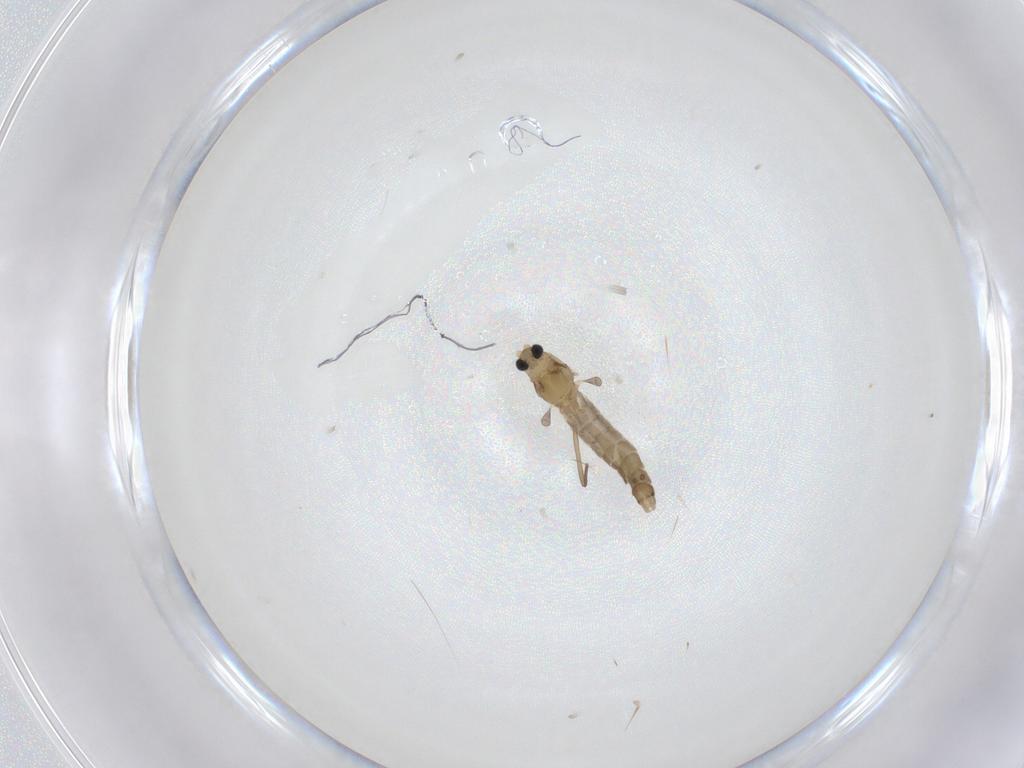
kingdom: Animalia
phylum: Arthropoda
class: Insecta
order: Diptera
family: Chironomidae
